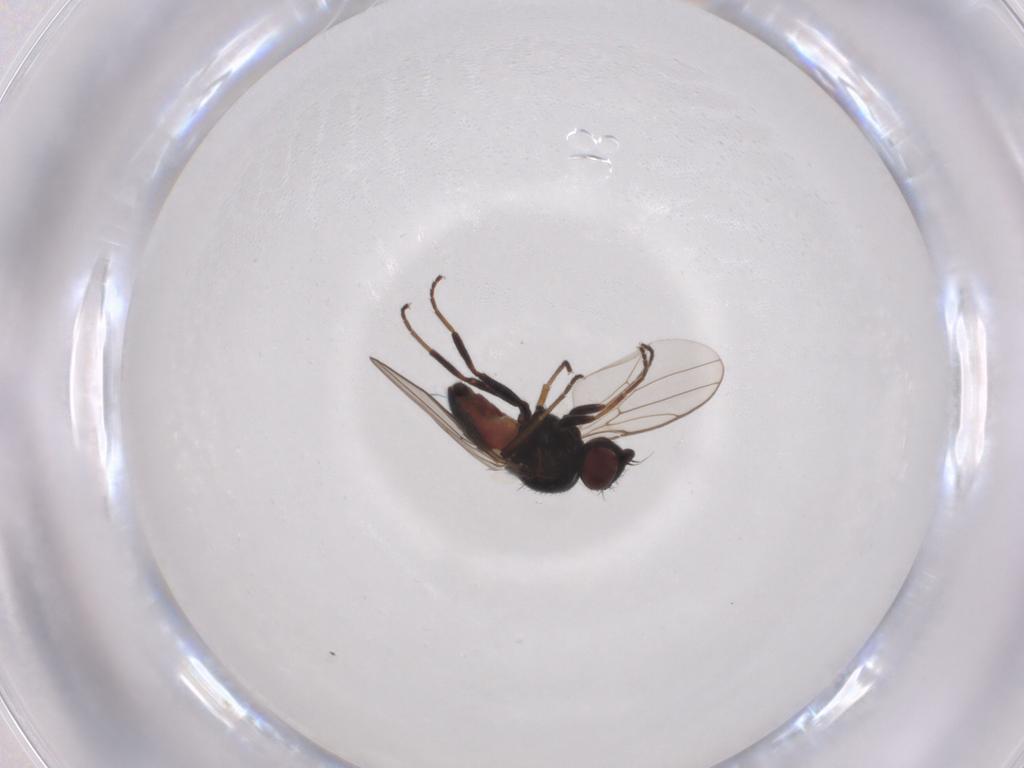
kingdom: Animalia
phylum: Arthropoda
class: Insecta
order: Diptera
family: Chloropidae
